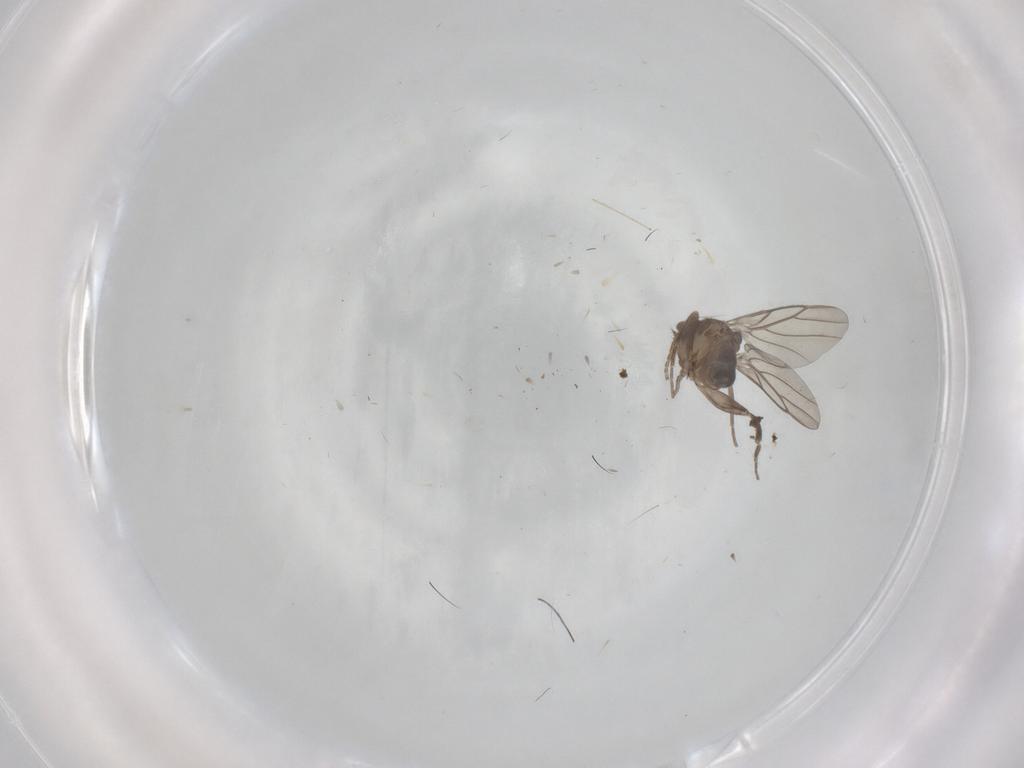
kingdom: Animalia
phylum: Arthropoda
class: Insecta
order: Diptera
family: Phoridae
